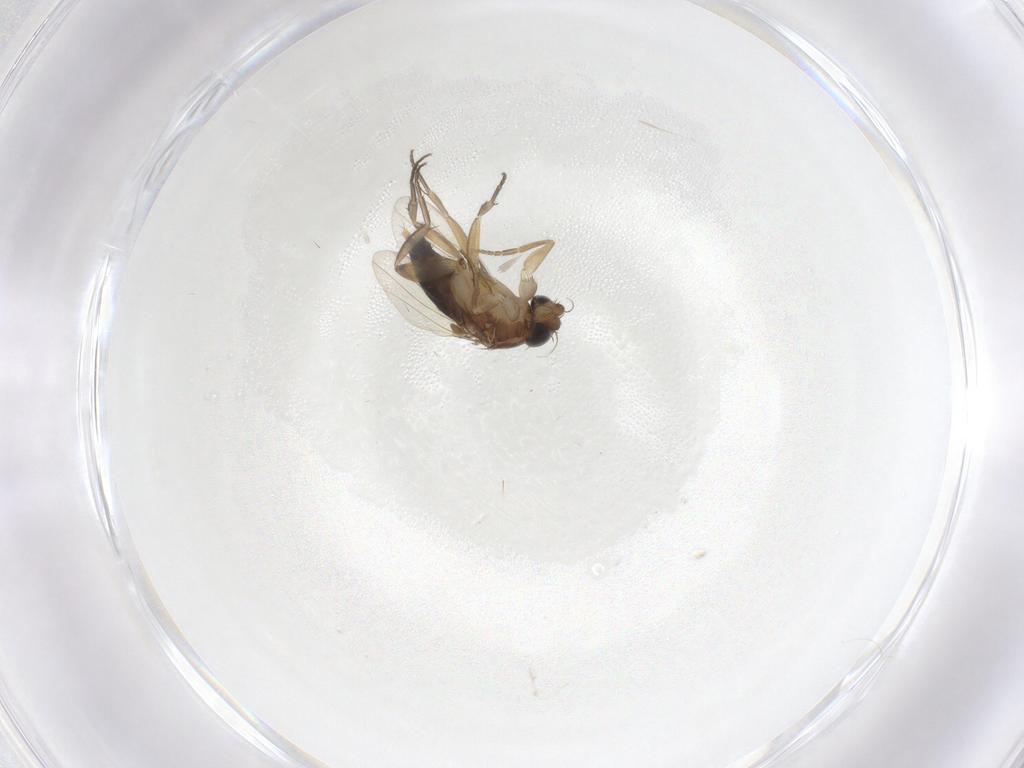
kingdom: Animalia
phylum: Arthropoda
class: Insecta
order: Diptera
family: Phoridae
